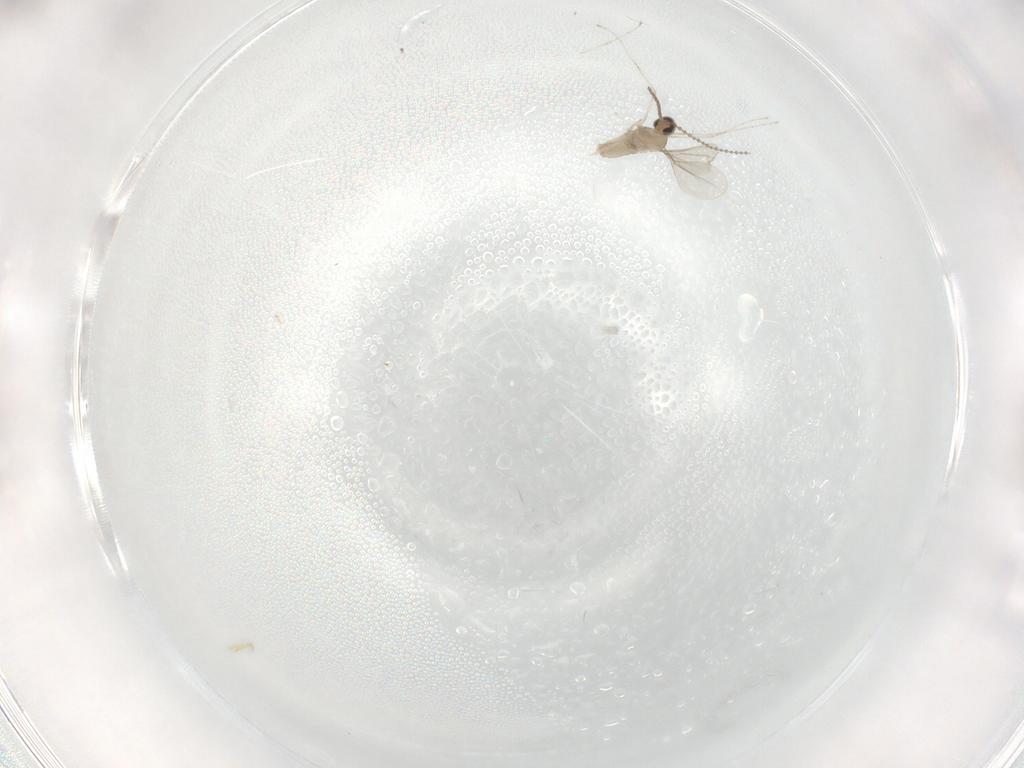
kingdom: Animalia
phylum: Arthropoda
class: Insecta
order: Diptera
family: Cecidomyiidae
